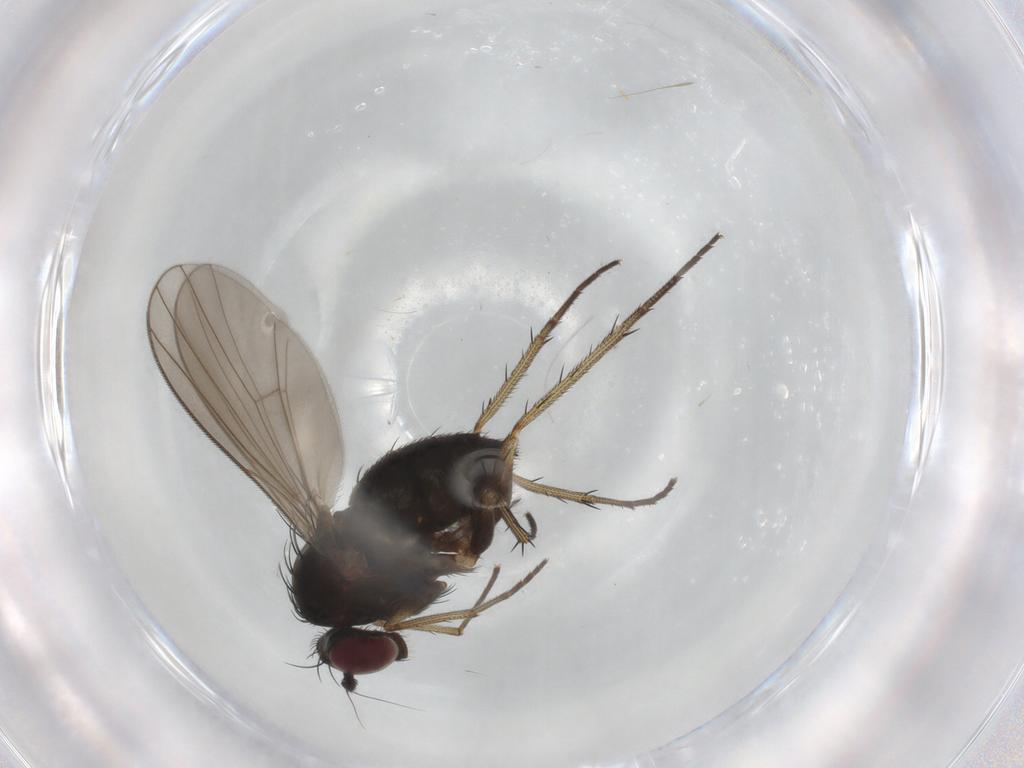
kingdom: Animalia
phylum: Arthropoda
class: Insecta
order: Diptera
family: Dolichopodidae
